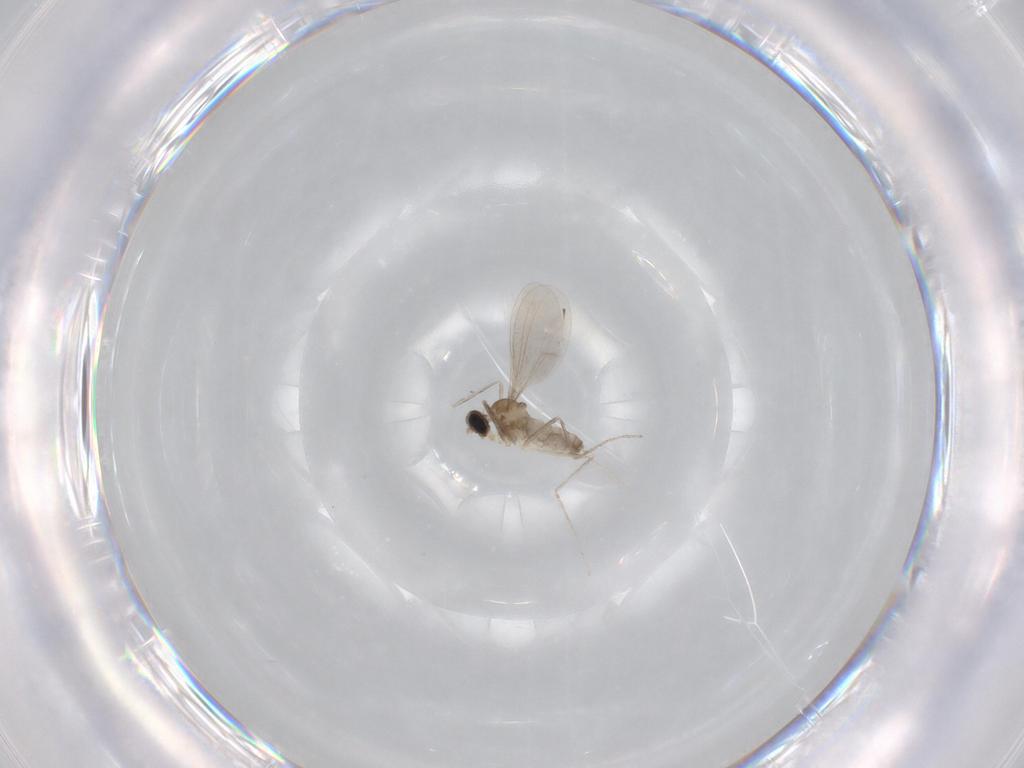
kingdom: Animalia
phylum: Arthropoda
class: Insecta
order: Diptera
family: Cecidomyiidae
